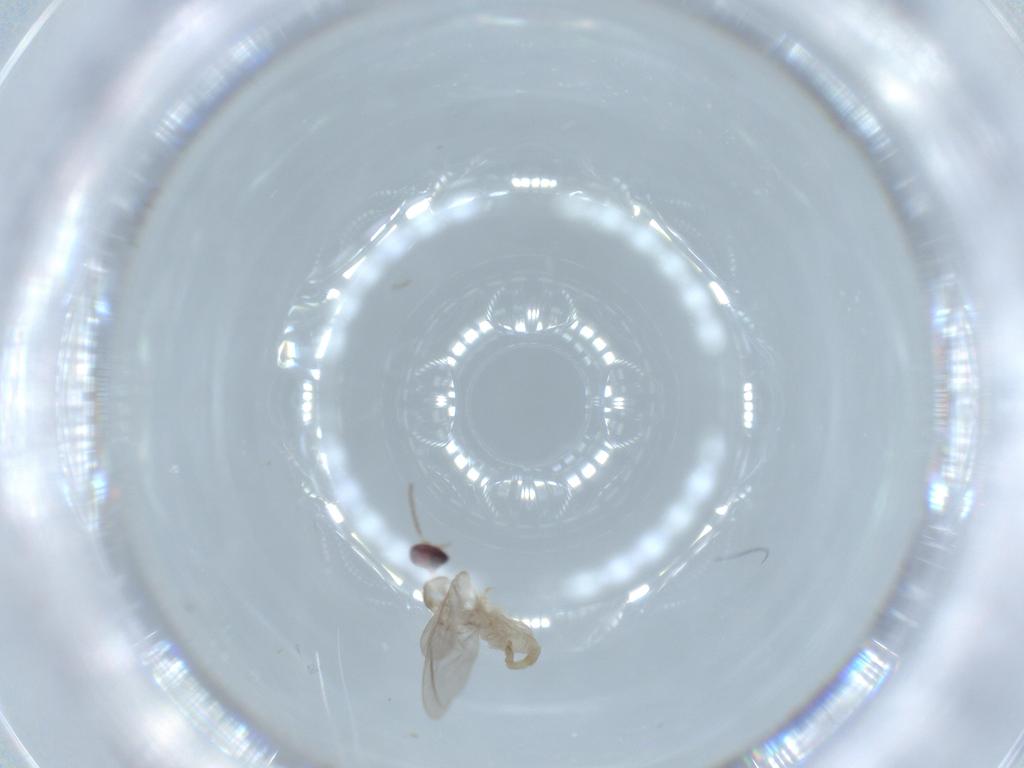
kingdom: Animalia
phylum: Arthropoda
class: Insecta
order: Diptera
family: Cecidomyiidae
